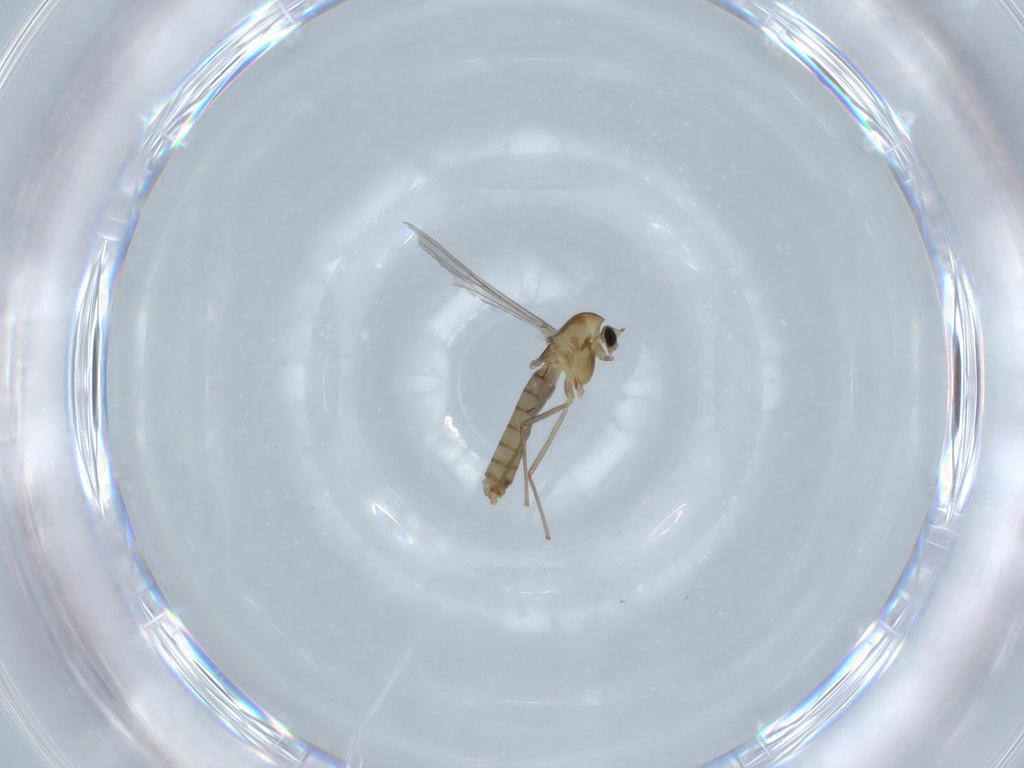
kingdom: Animalia
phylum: Arthropoda
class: Insecta
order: Diptera
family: Chironomidae
